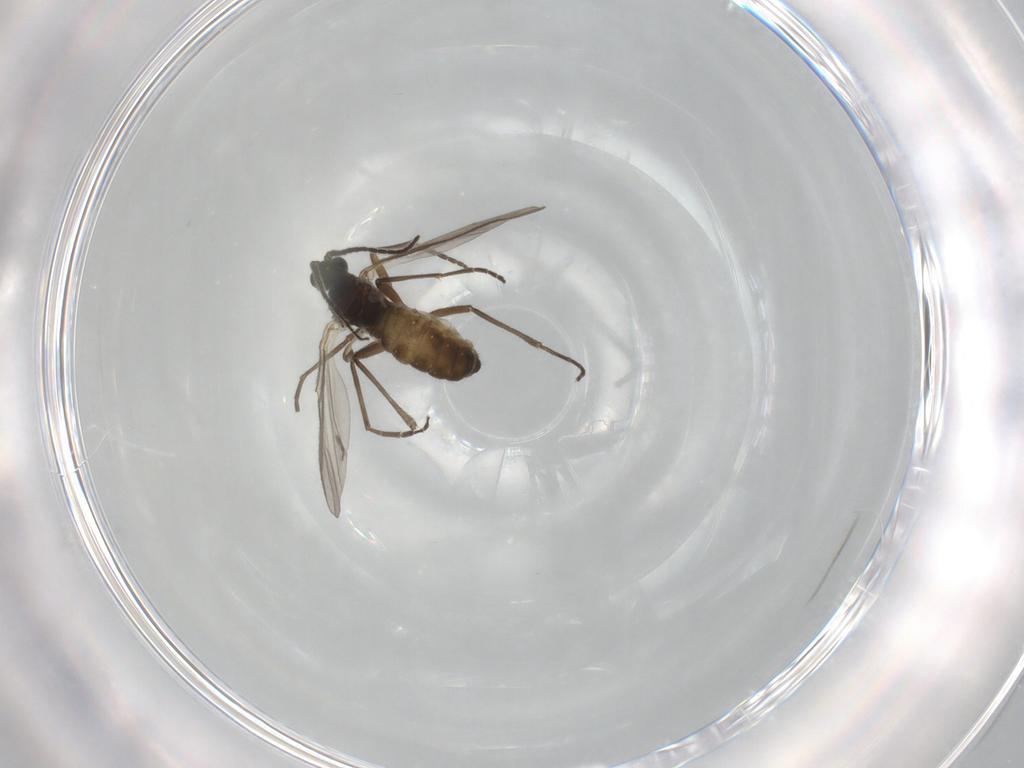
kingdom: Animalia
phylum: Arthropoda
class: Insecta
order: Diptera
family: Sciaridae
